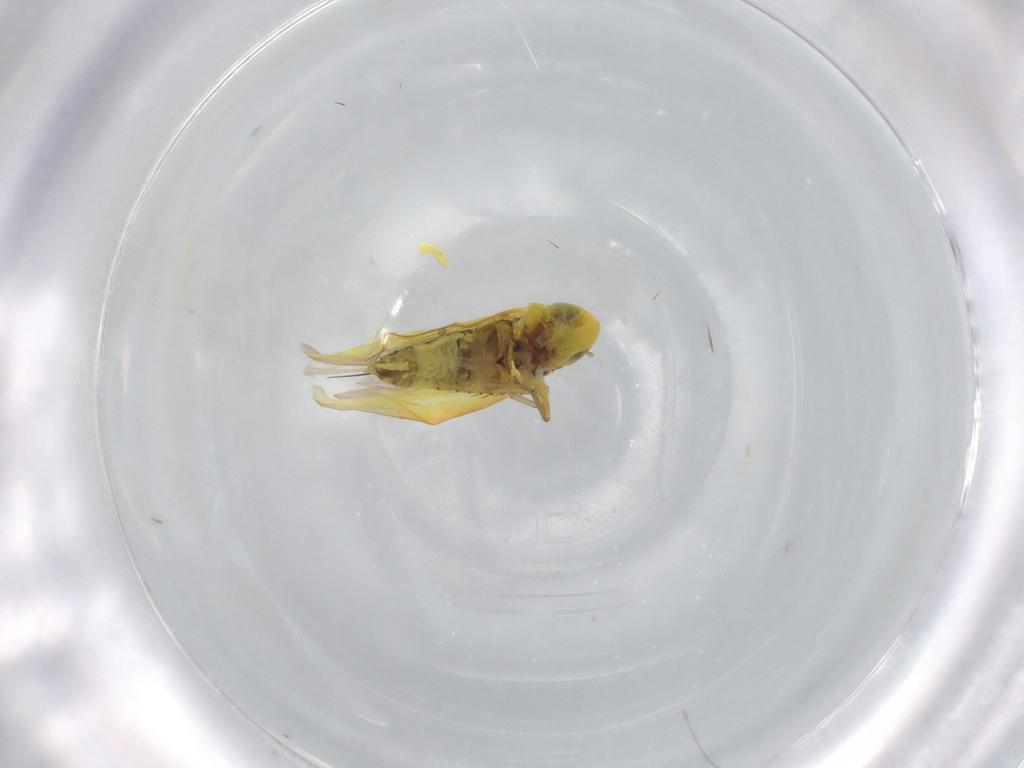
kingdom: Animalia
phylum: Arthropoda
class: Insecta
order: Hemiptera
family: Cicadellidae
